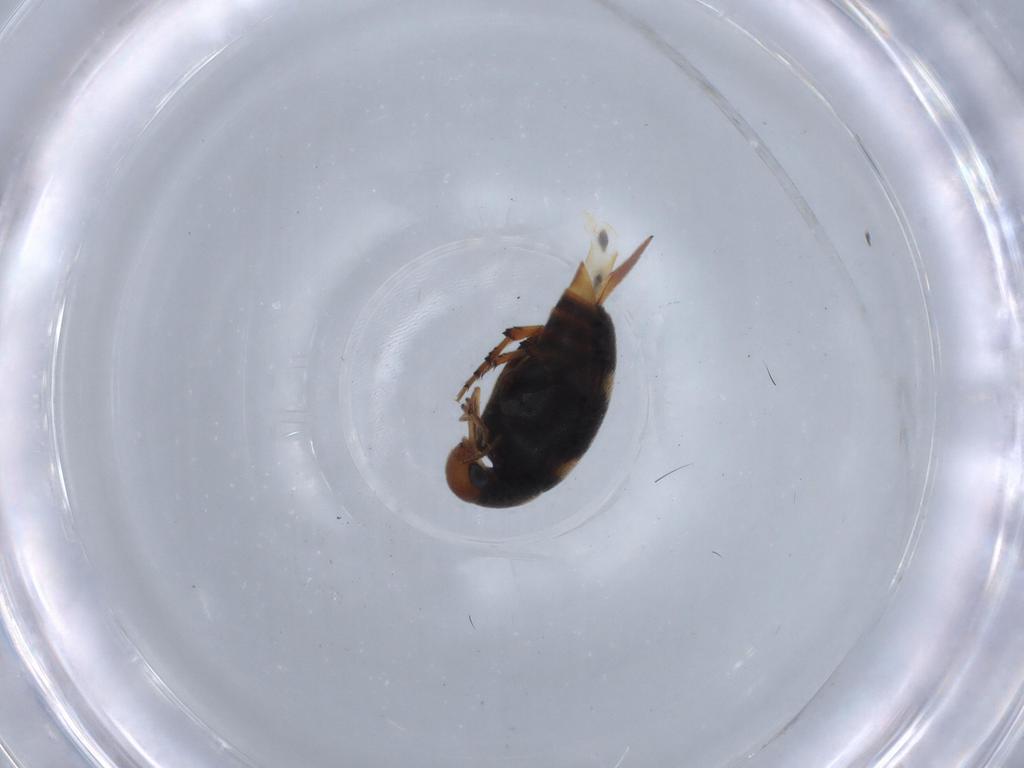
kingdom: Animalia
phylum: Arthropoda
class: Insecta
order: Coleoptera
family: Mordellidae
